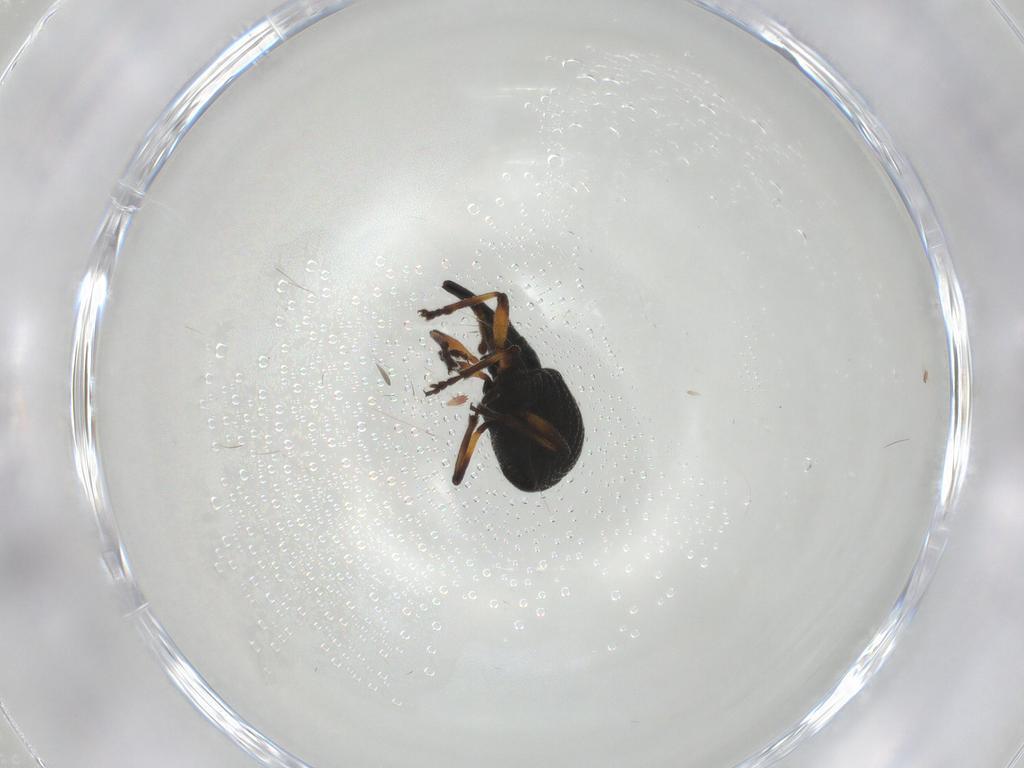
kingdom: Animalia
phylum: Arthropoda
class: Insecta
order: Coleoptera
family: Brentidae
